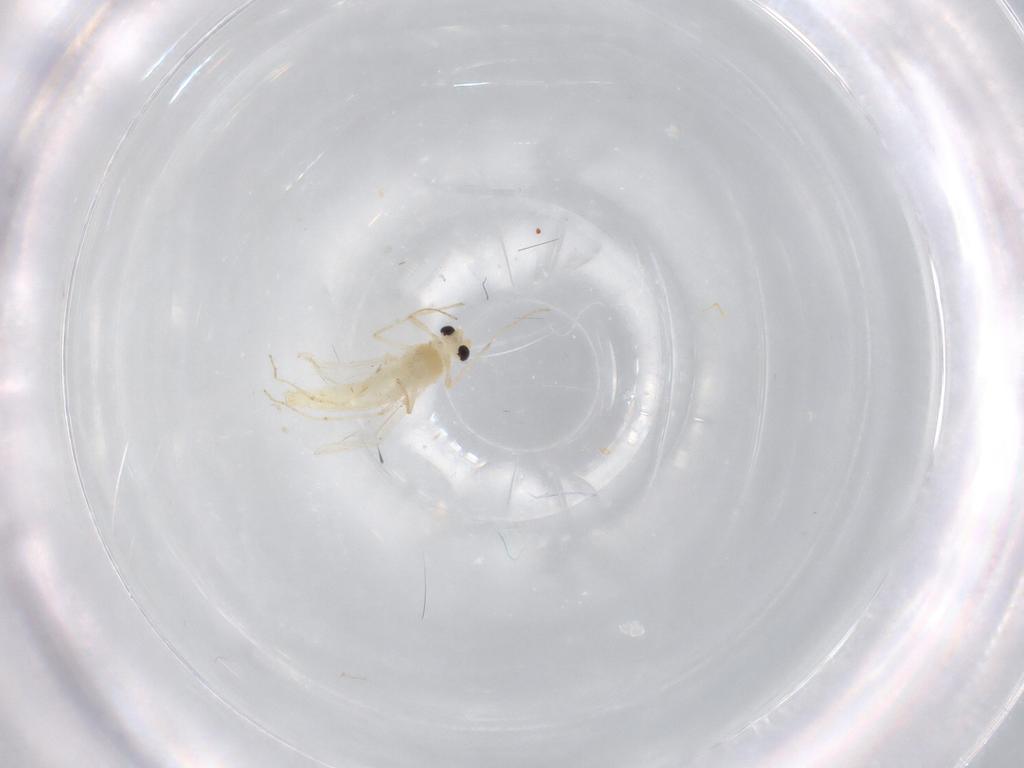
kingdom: Animalia
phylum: Arthropoda
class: Insecta
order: Diptera
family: Chironomidae
